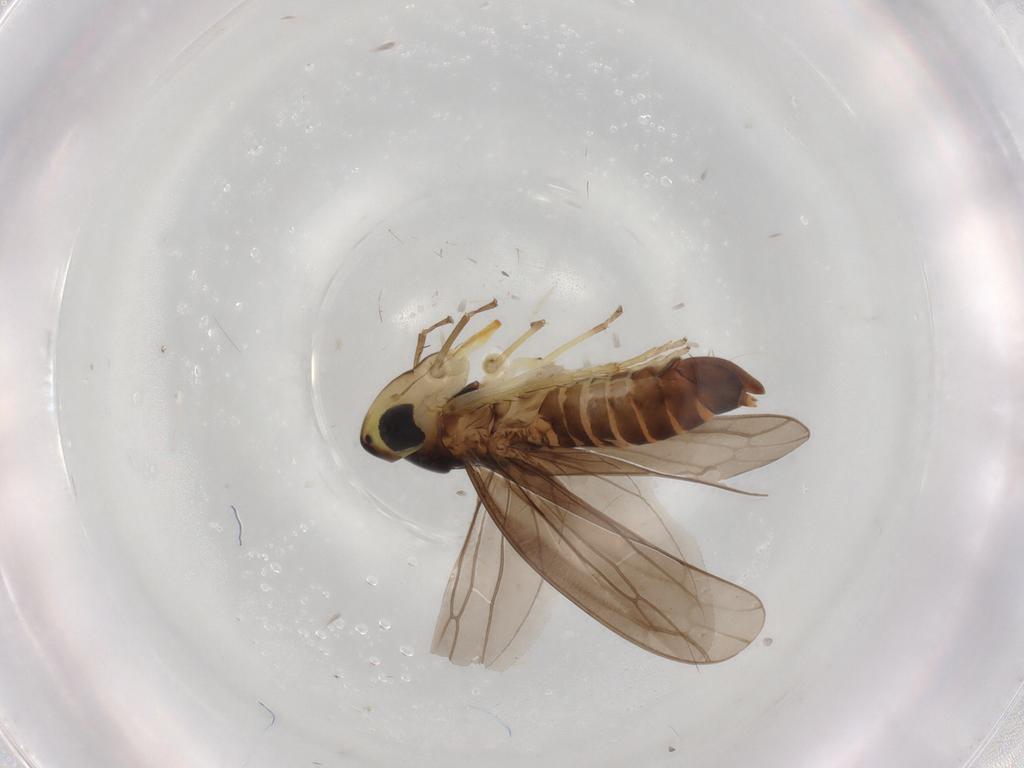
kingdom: Animalia
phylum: Arthropoda
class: Insecta
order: Hemiptera
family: Cicadellidae
